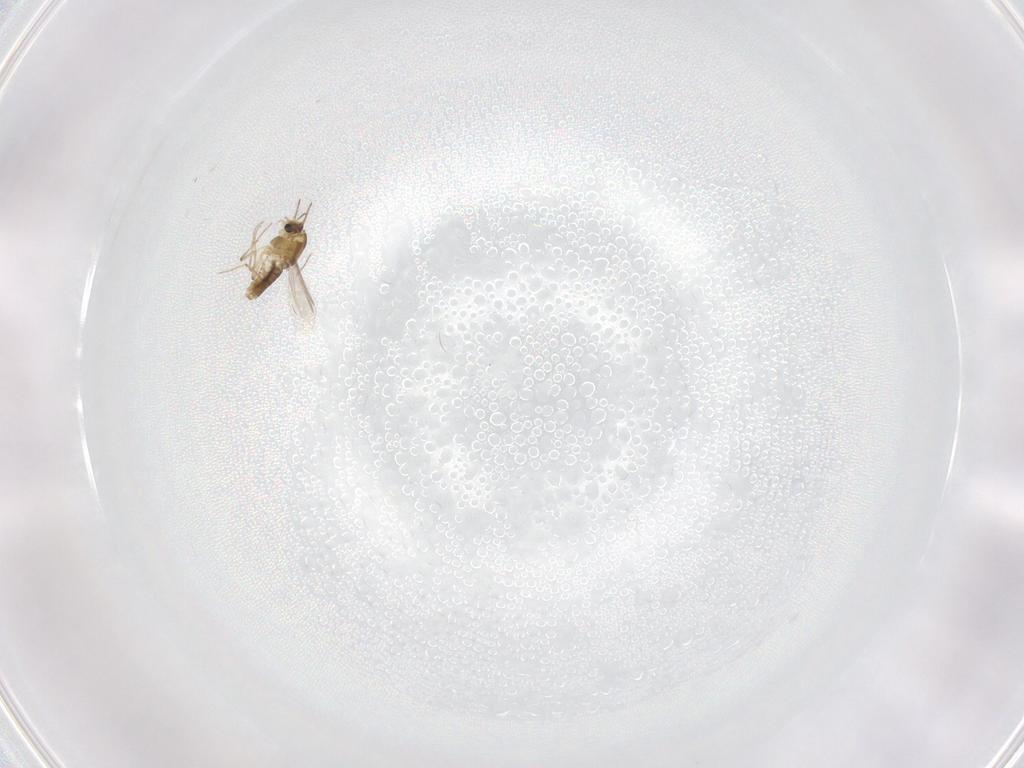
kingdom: Animalia
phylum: Arthropoda
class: Insecta
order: Diptera
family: Chironomidae
